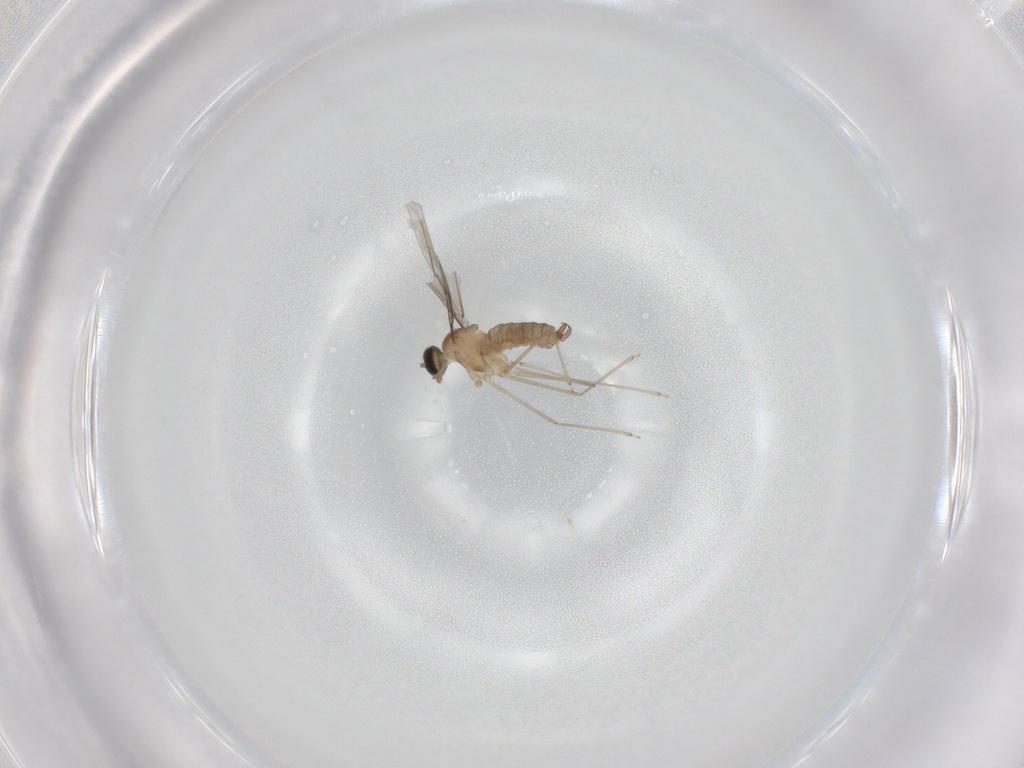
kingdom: Animalia
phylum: Arthropoda
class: Insecta
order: Diptera
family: Cecidomyiidae
